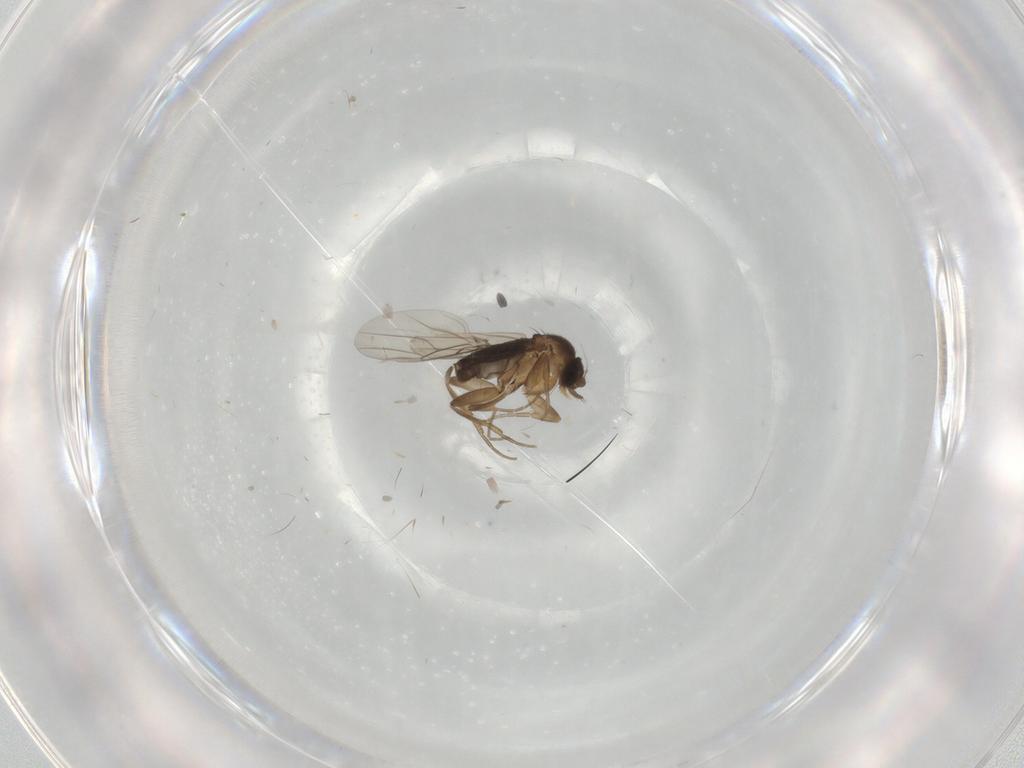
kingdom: Animalia
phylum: Arthropoda
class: Insecta
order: Diptera
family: Phoridae
